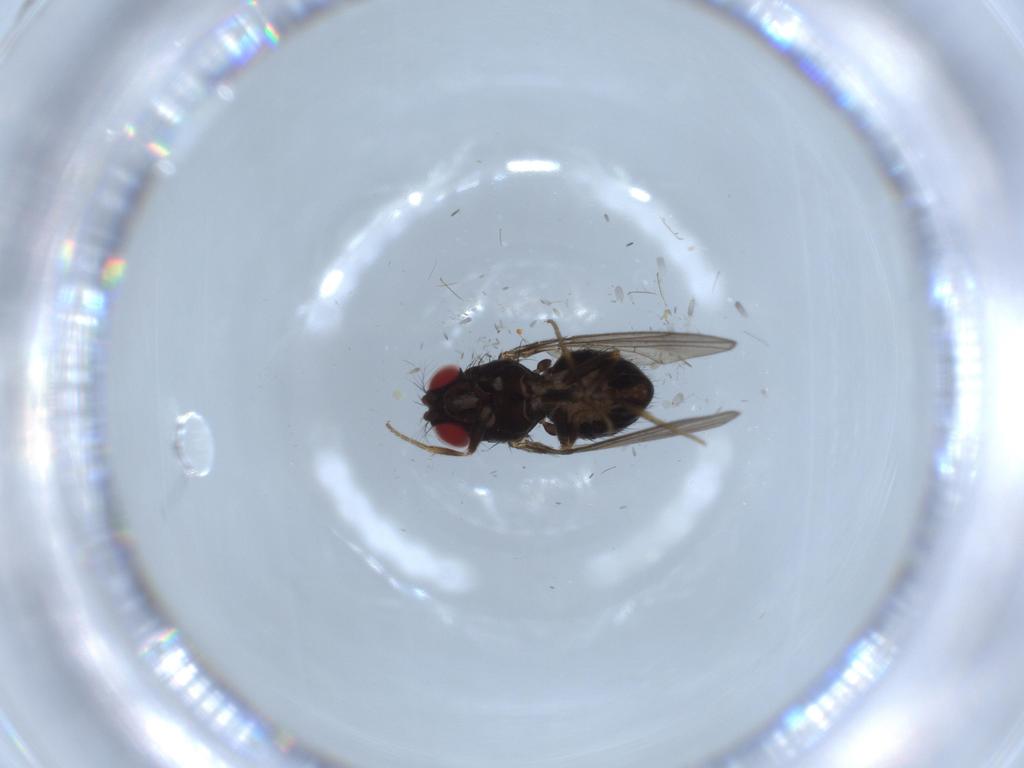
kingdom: Animalia
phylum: Arthropoda
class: Insecta
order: Diptera
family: Drosophilidae
